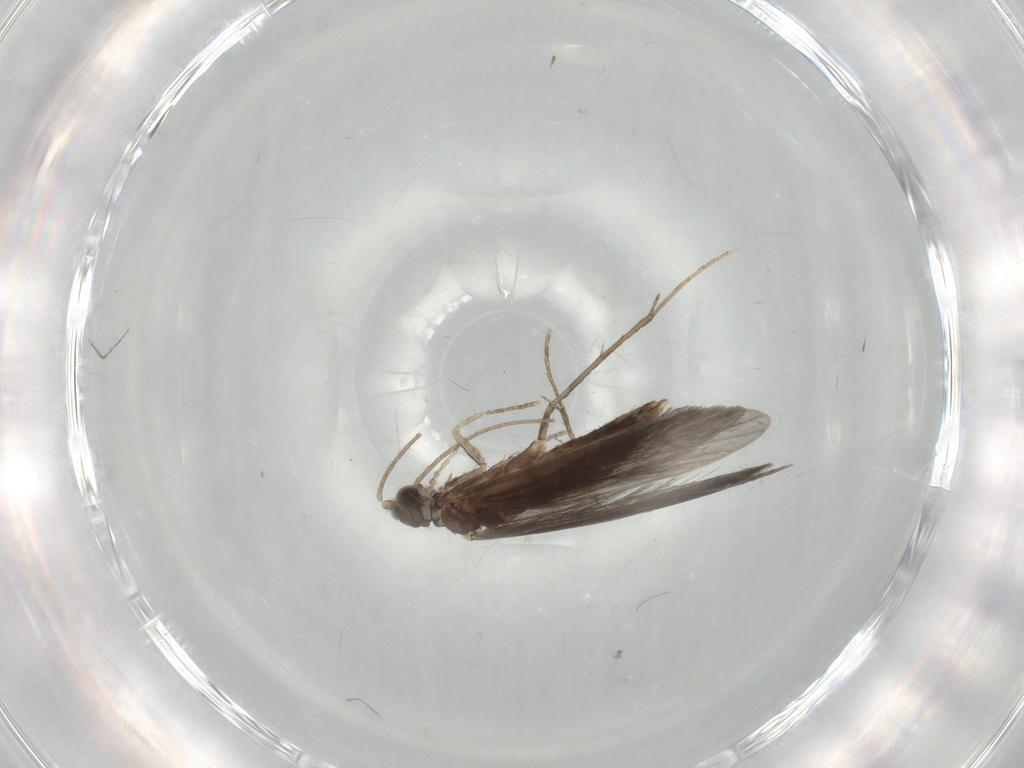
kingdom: Animalia
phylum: Arthropoda
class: Insecta
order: Trichoptera
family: Xiphocentronidae
